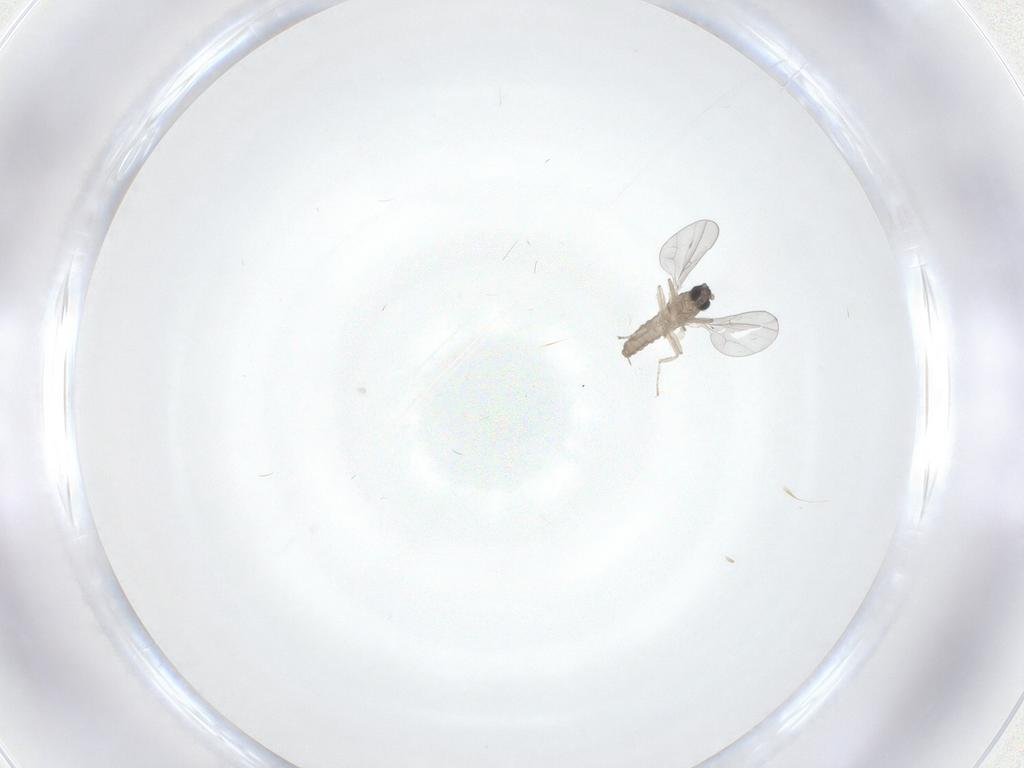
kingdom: Animalia
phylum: Arthropoda
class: Insecta
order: Diptera
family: Cecidomyiidae
